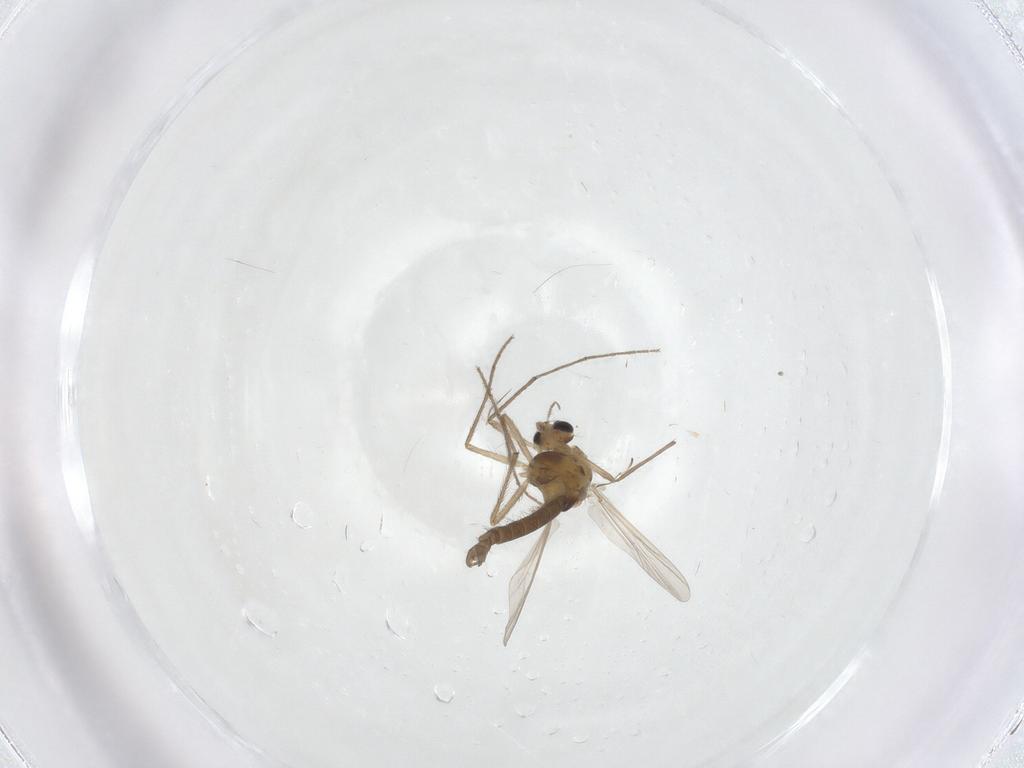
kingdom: Animalia
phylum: Arthropoda
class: Insecta
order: Diptera
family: Chironomidae
